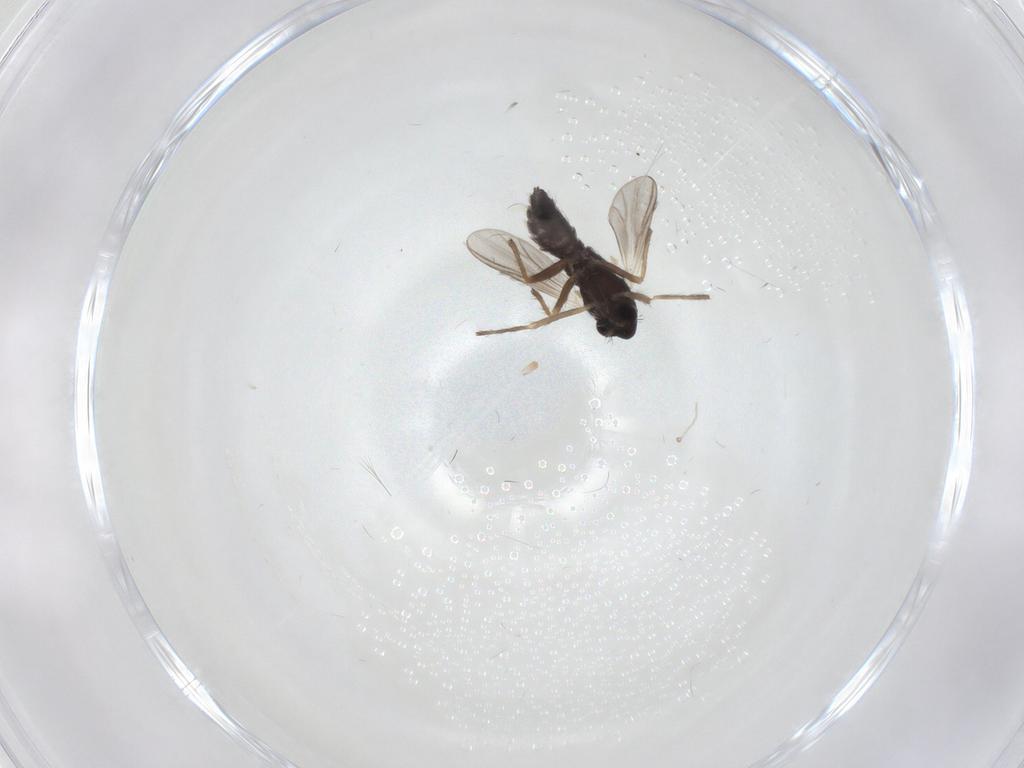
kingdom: Animalia
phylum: Arthropoda
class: Insecta
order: Diptera
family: Chironomidae
